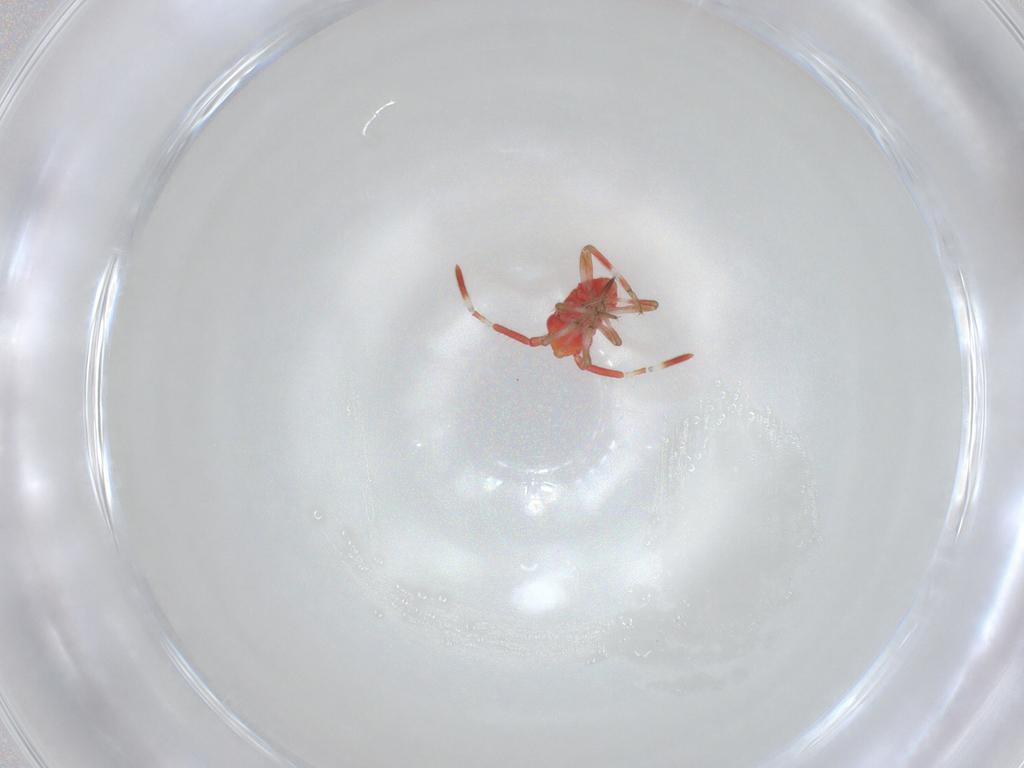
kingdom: Animalia
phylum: Arthropoda
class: Insecta
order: Hemiptera
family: Miridae
